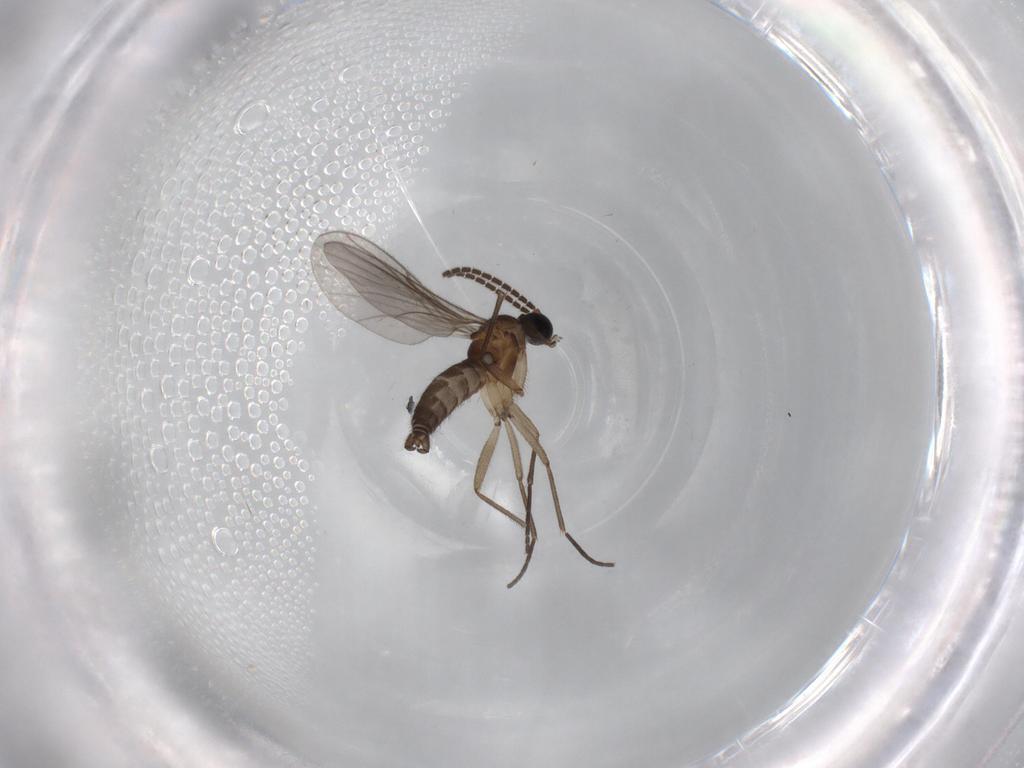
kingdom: Animalia
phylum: Arthropoda
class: Insecta
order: Diptera
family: Sciaridae
